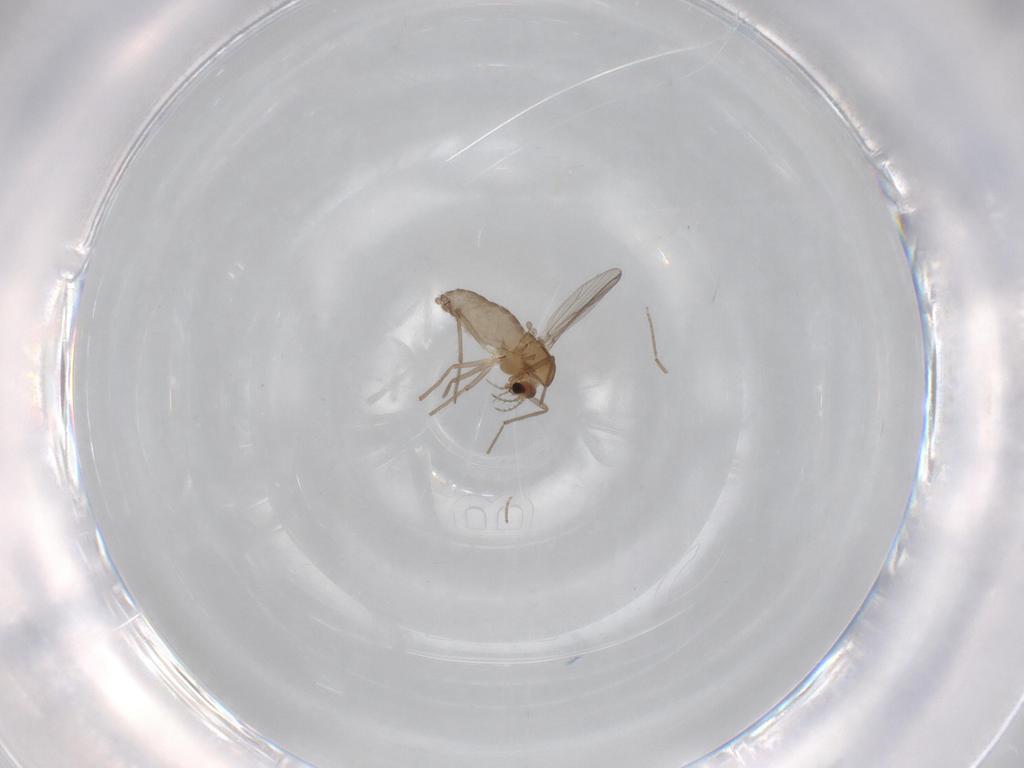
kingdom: Animalia
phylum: Arthropoda
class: Insecta
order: Diptera
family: Chironomidae
